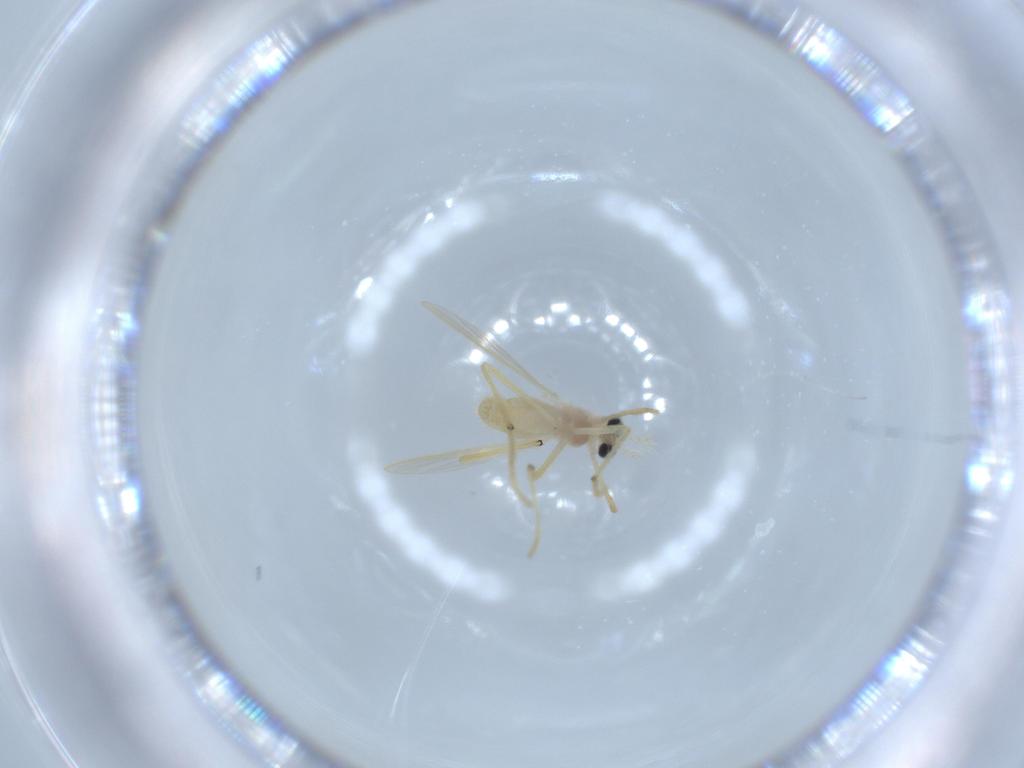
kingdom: Animalia
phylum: Arthropoda
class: Insecta
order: Diptera
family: Chironomidae
